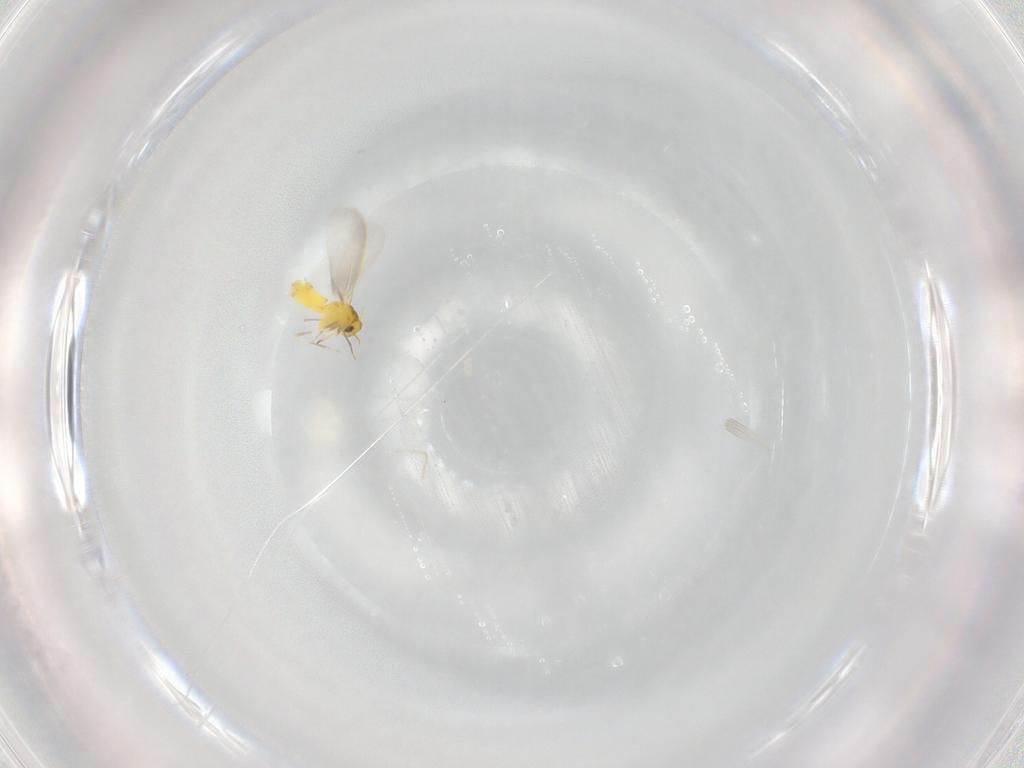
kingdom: Animalia
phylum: Arthropoda
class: Insecta
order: Hemiptera
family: Aleyrodidae
